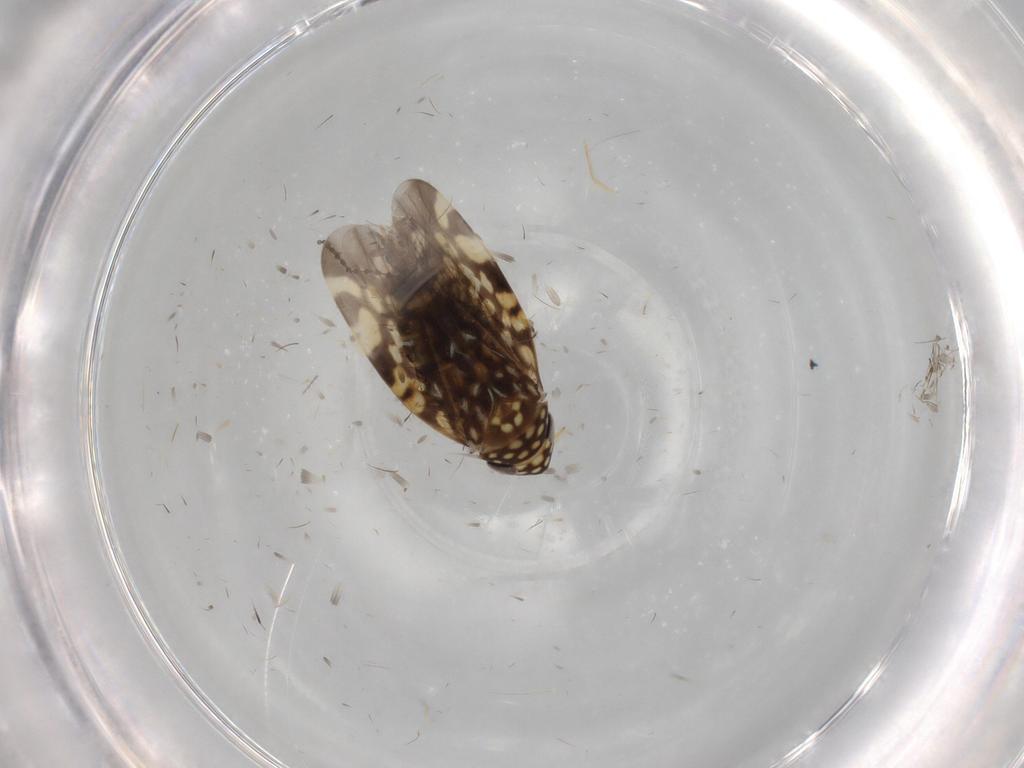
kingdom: Animalia
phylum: Arthropoda
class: Insecta
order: Hemiptera
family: Cicadellidae
